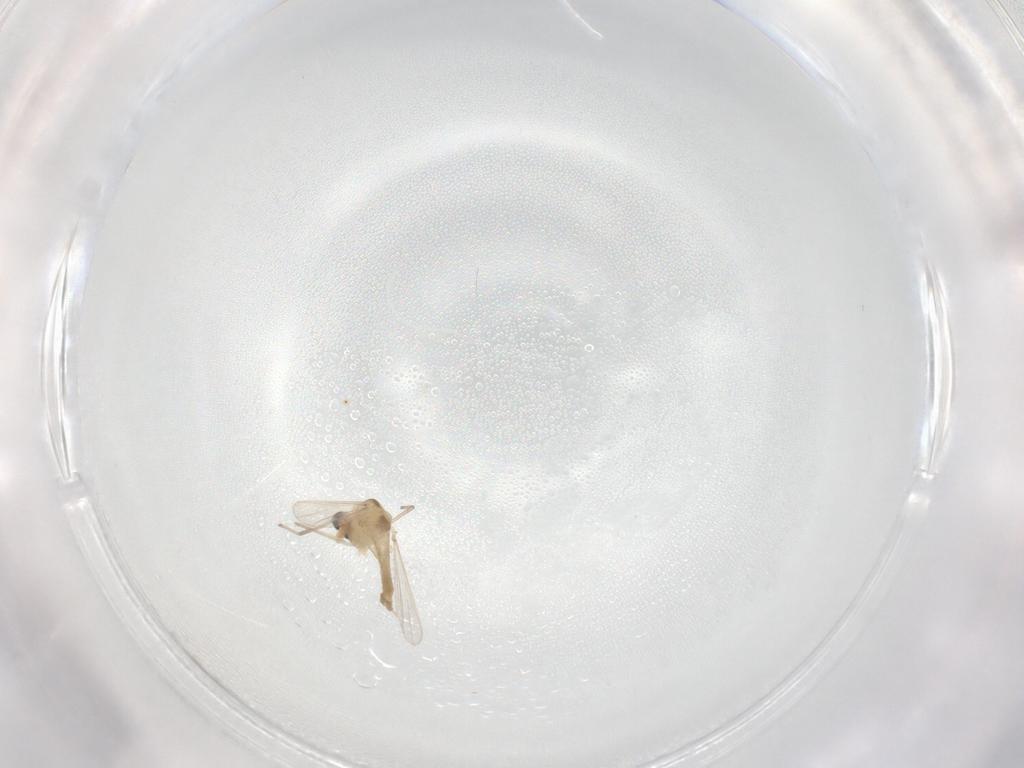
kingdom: Animalia
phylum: Arthropoda
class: Insecta
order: Diptera
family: Chironomidae
